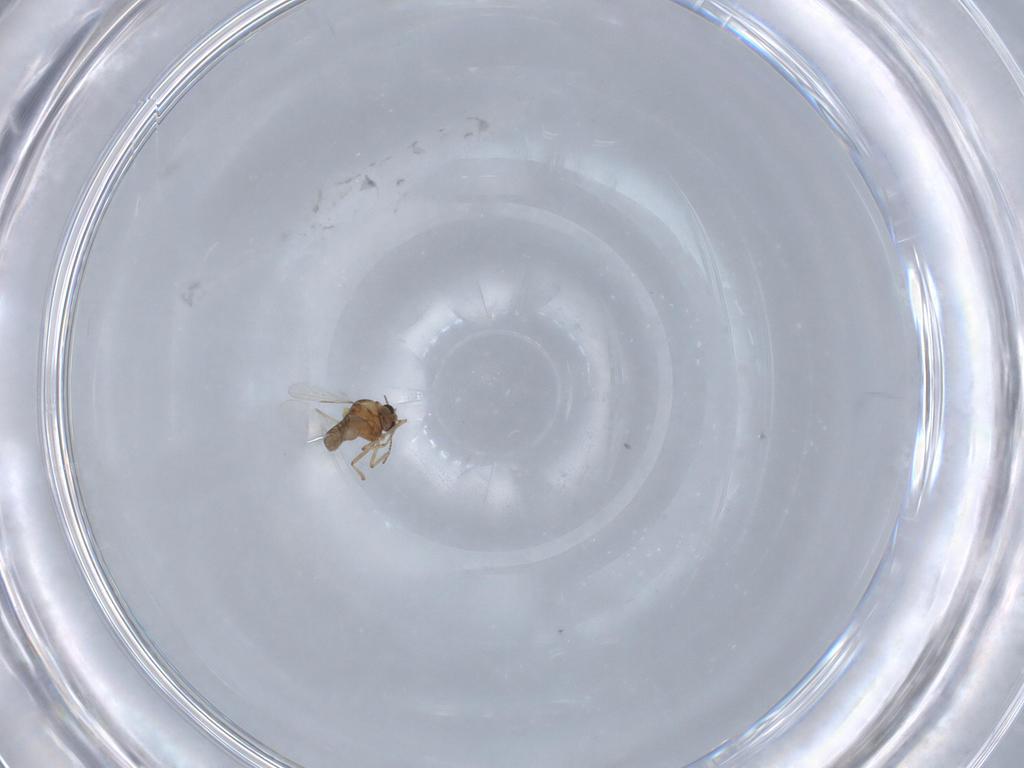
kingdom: Animalia
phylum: Arthropoda
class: Insecta
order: Diptera
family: Ceratopogonidae
